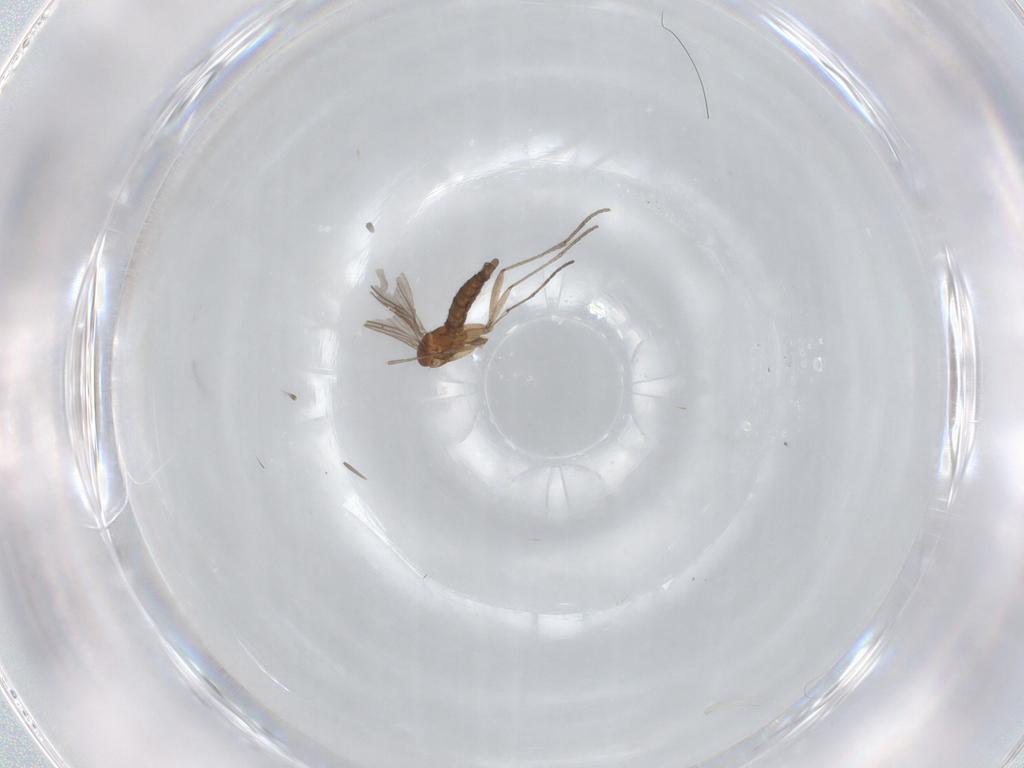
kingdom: Animalia
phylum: Arthropoda
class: Insecta
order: Diptera
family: Sciaridae
